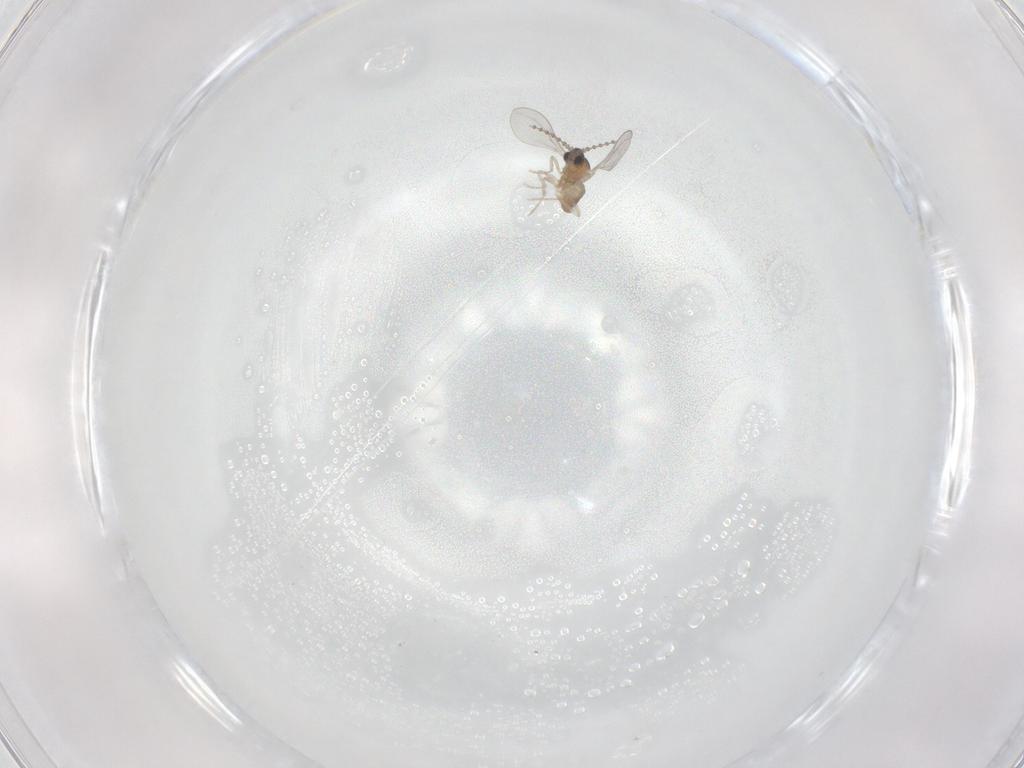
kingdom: Animalia
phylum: Arthropoda
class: Insecta
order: Diptera
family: Cecidomyiidae
